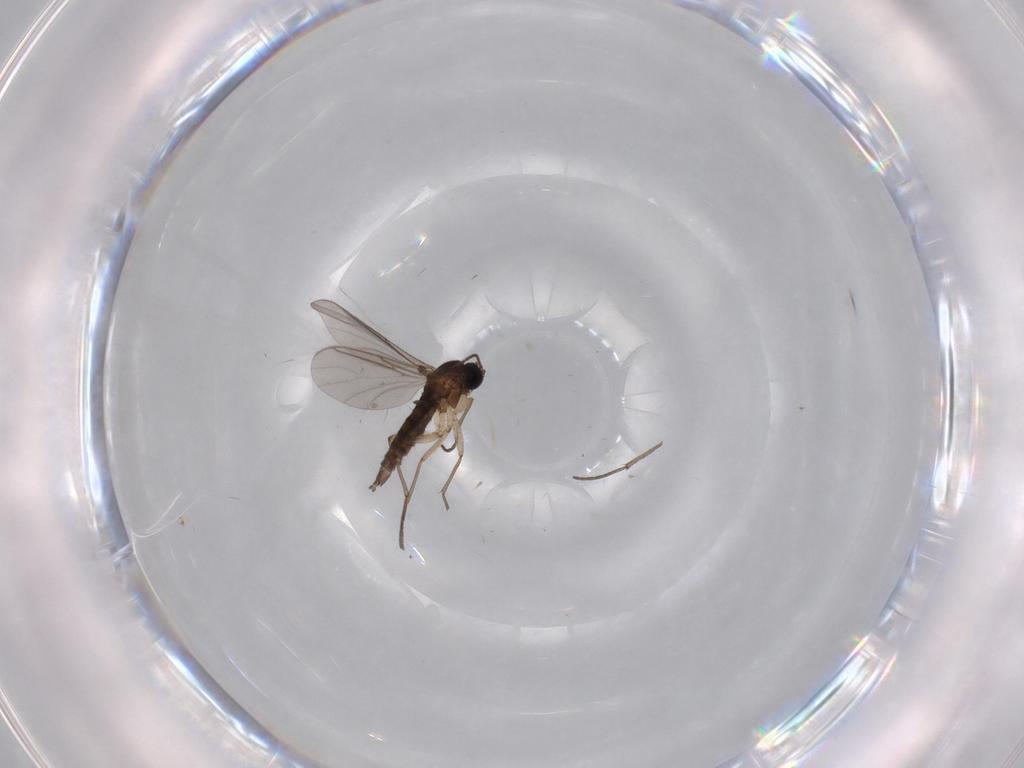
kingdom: Animalia
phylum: Arthropoda
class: Insecta
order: Diptera
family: Sciaridae
